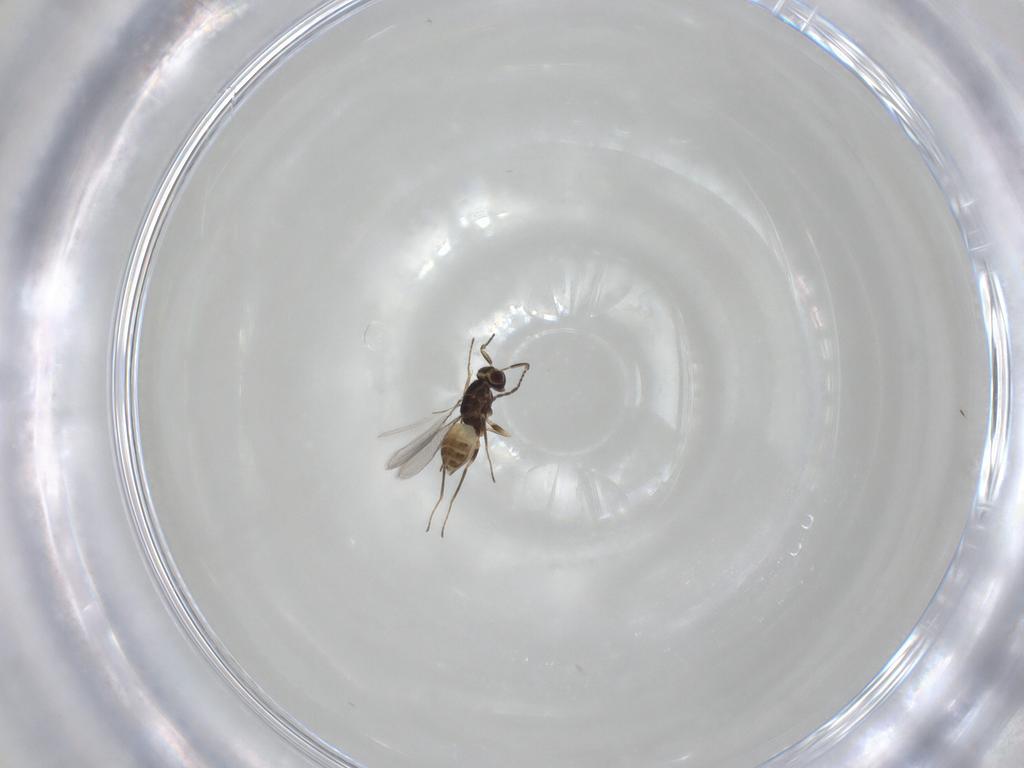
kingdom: Animalia
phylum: Arthropoda
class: Insecta
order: Hymenoptera
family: Mymaridae
